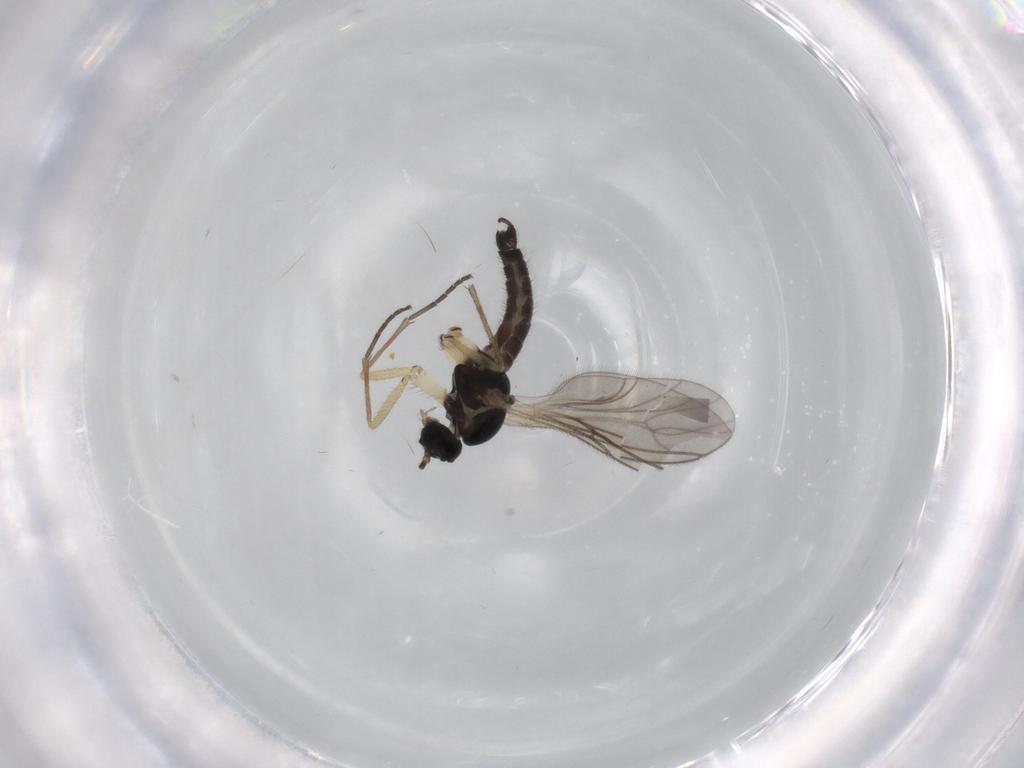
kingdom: Animalia
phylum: Arthropoda
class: Insecta
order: Diptera
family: Sciaridae
